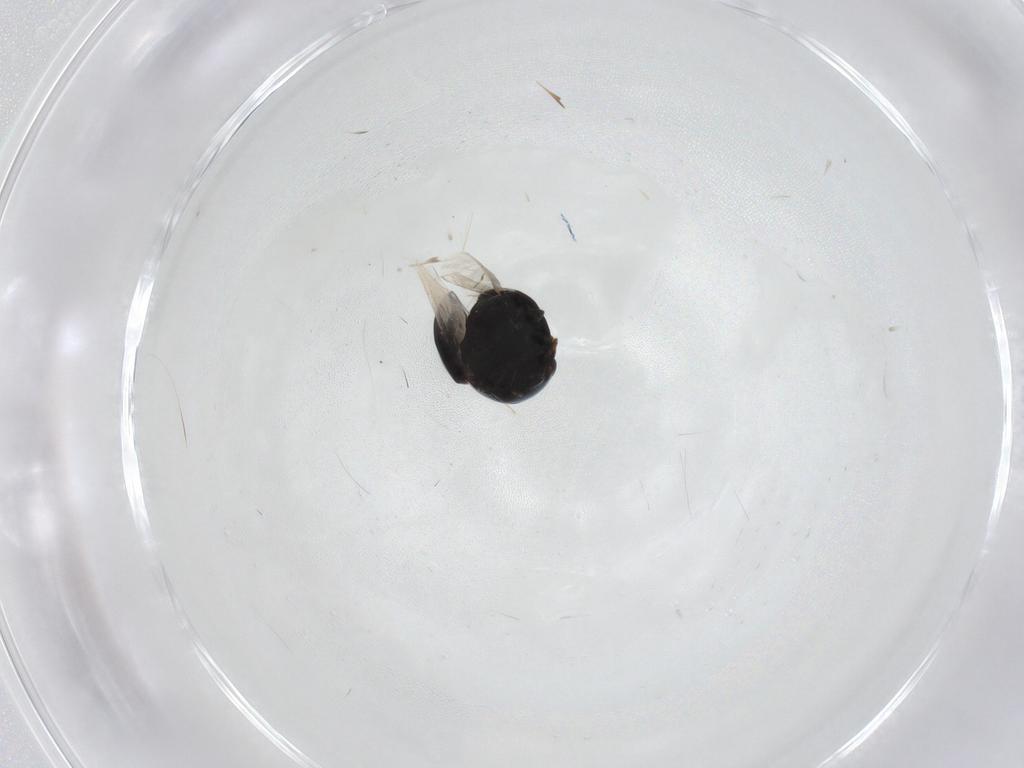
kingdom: Animalia
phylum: Arthropoda
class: Insecta
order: Coleoptera
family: Cybocephalidae
